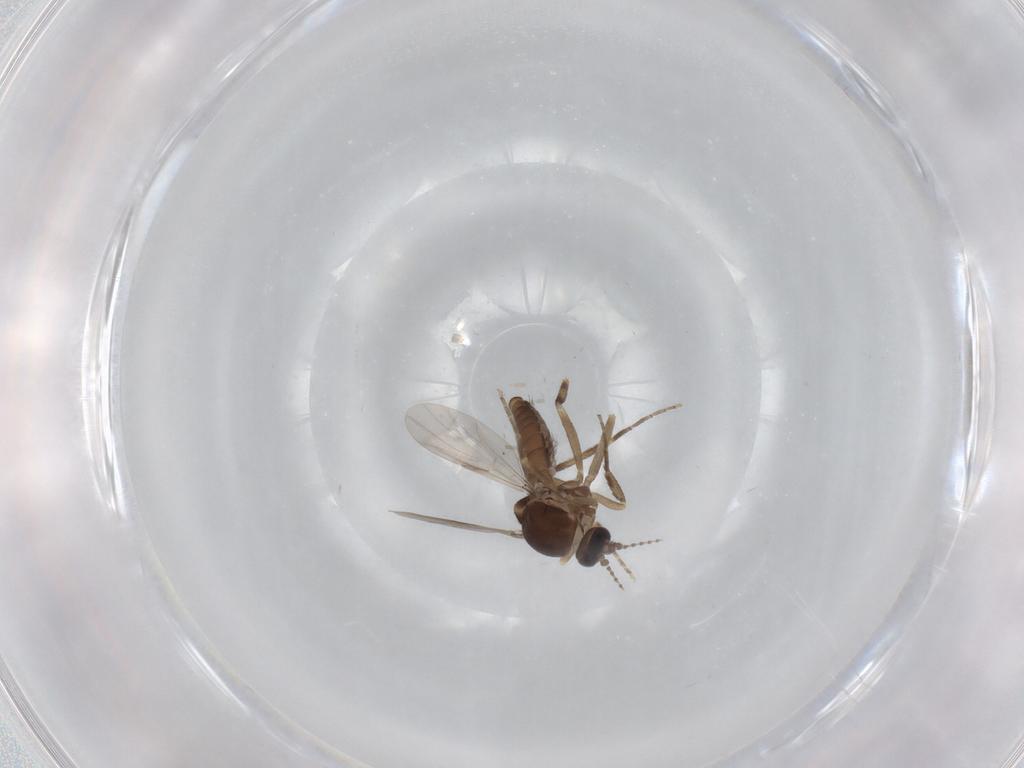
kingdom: Animalia
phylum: Arthropoda
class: Insecta
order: Diptera
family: Ceratopogonidae
